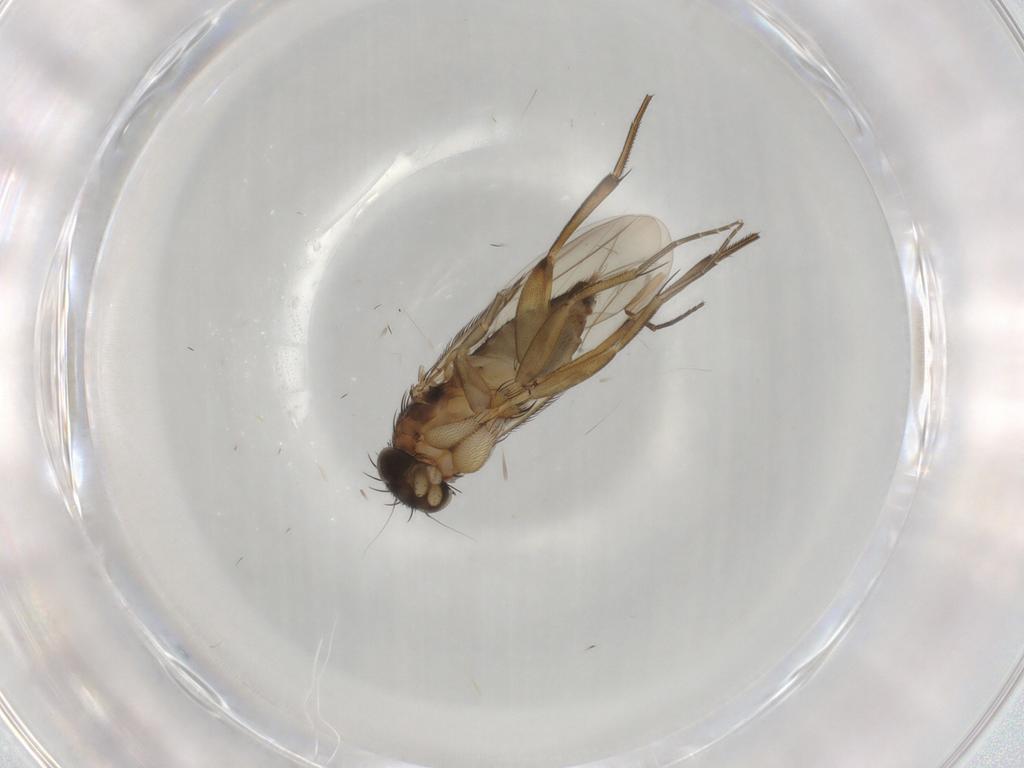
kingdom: Animalia
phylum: Arthropoda
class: Insecta
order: Diptera
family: Phoridae
